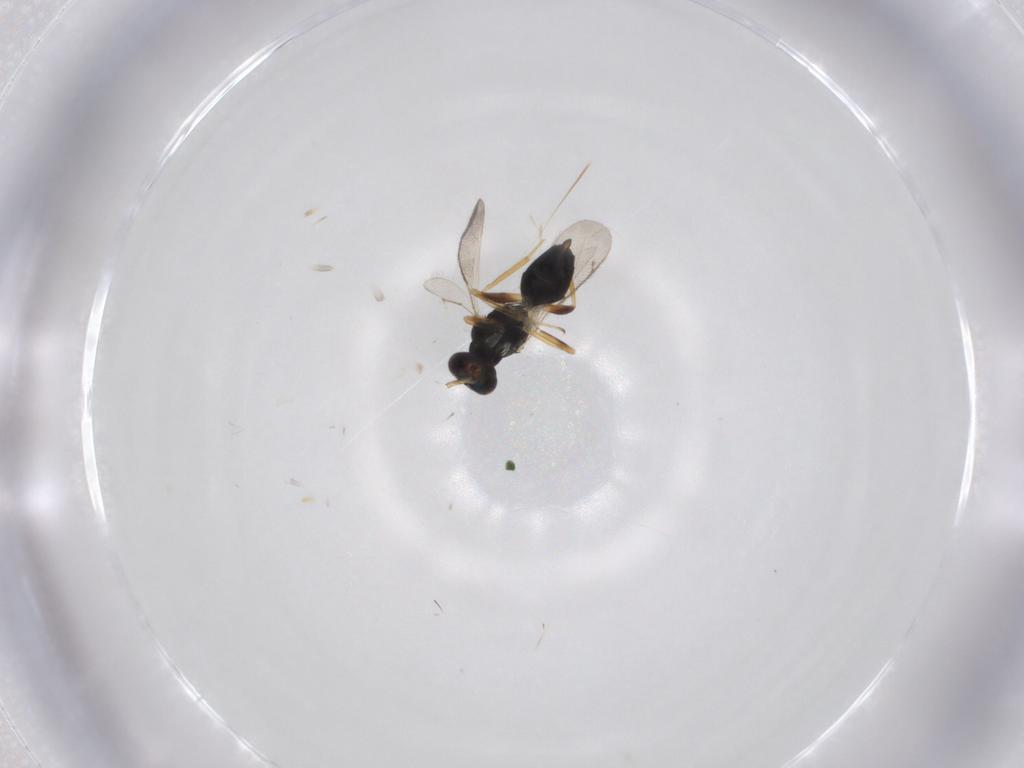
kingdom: Animalia
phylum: Arthropoda
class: Insecta
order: Hymenoptera
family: Eulophidae
